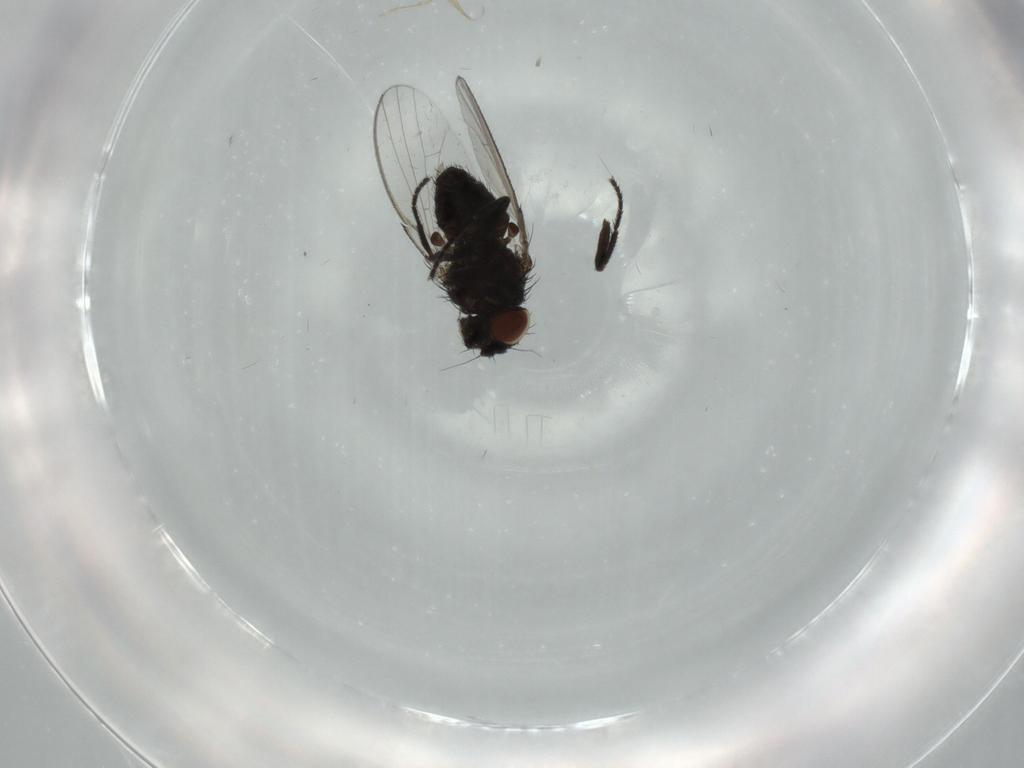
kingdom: Animalia
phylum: Arthropoda
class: Insecta
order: Diptera
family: Milichiidae
